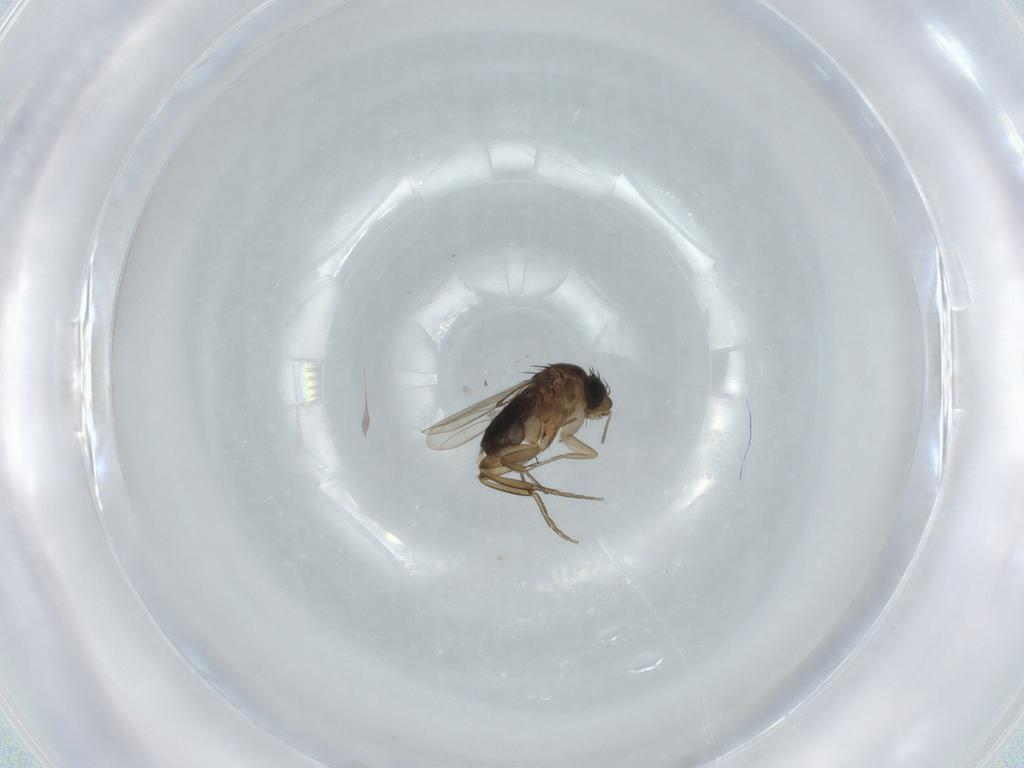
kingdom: Animalia
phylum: Arthropoda
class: Insecta
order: Diptera
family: Phoridae
